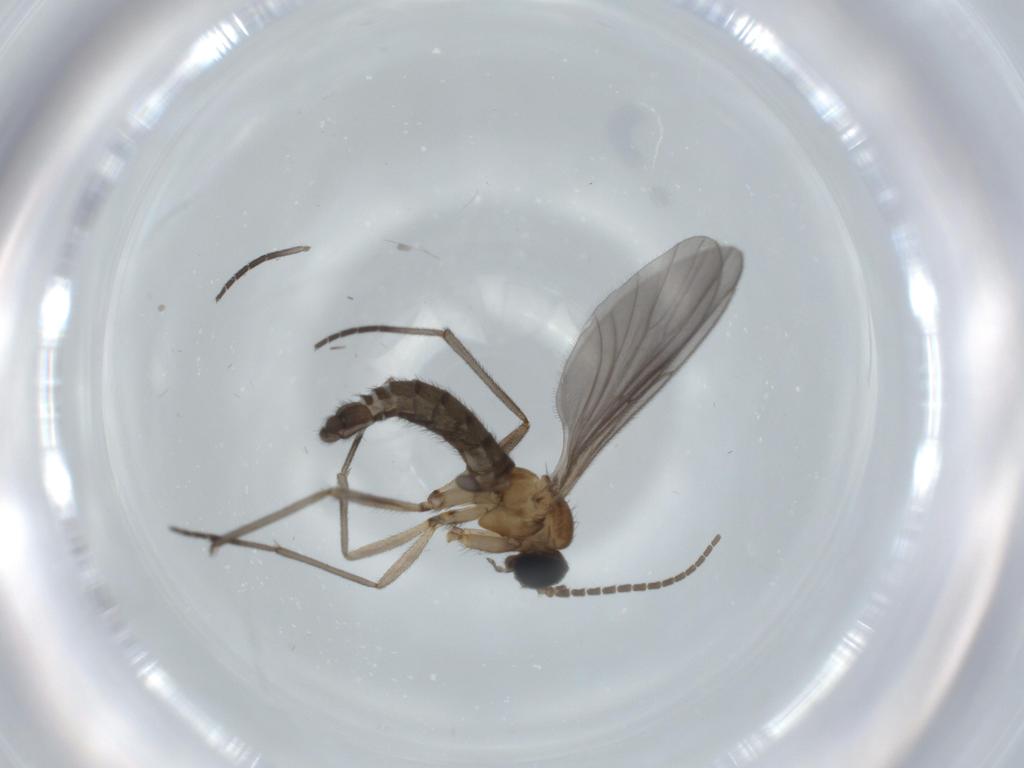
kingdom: Animalia
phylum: Arthropoda
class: Insecta
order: Diptera
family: Sciaridae
